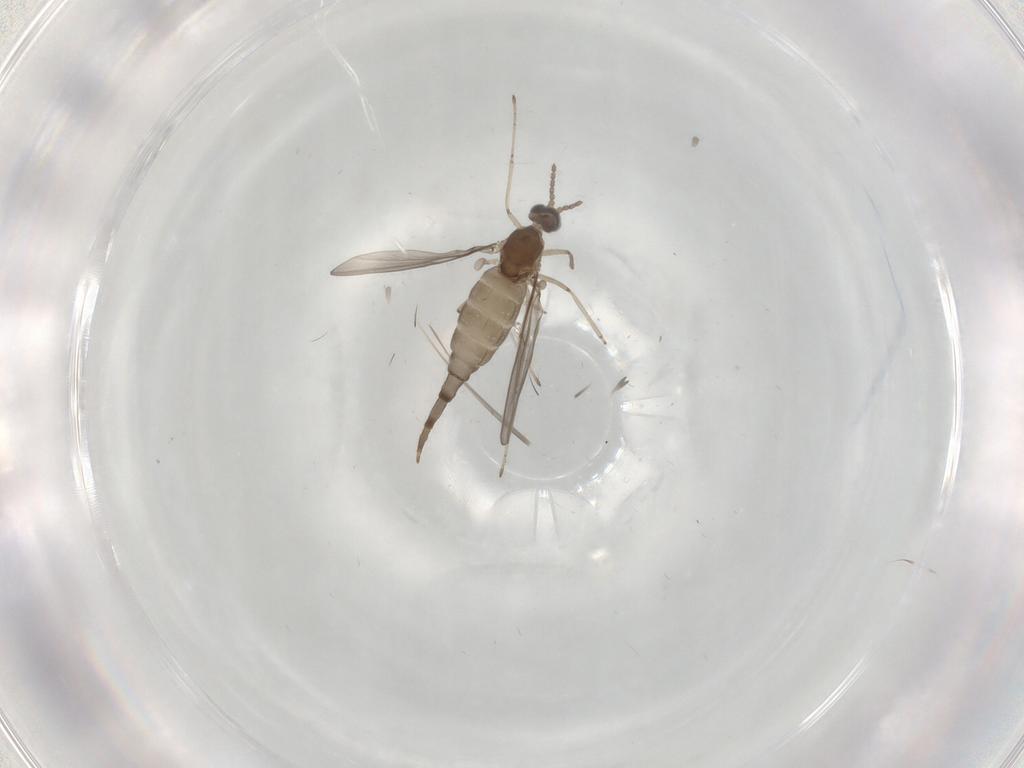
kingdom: Animalia
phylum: Arthropoda
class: Insecta
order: Diptera
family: Cecidomyiidae
